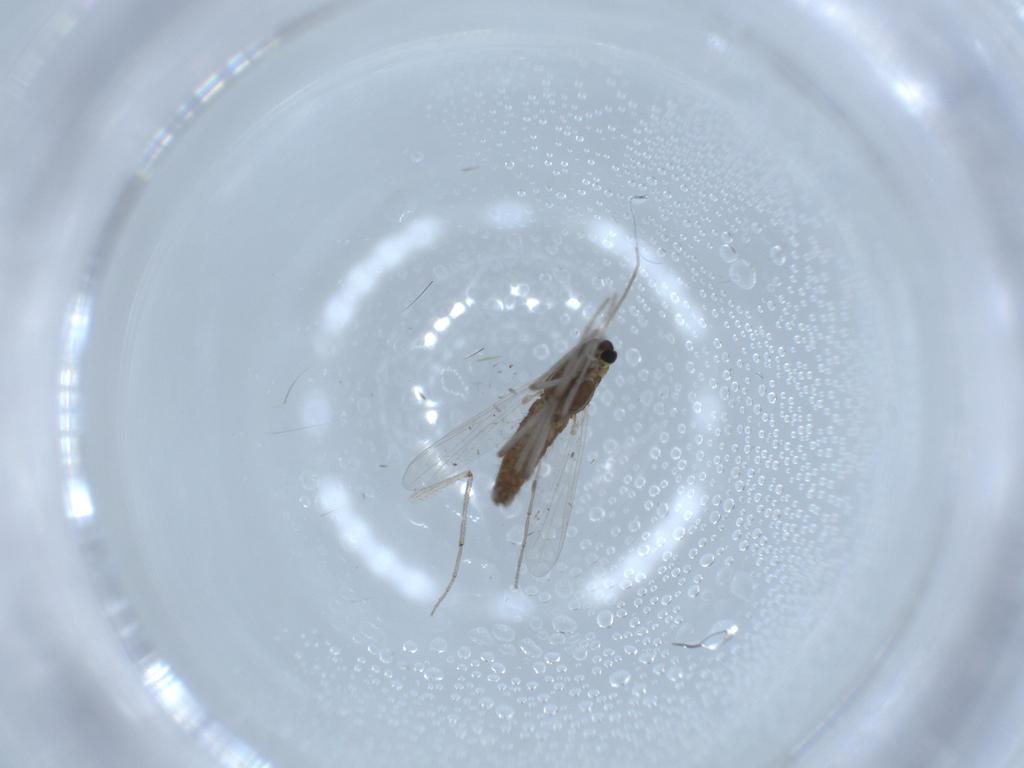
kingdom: Animalia
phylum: Arthropoda
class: Insecta
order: Diptera
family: Chironomidae
